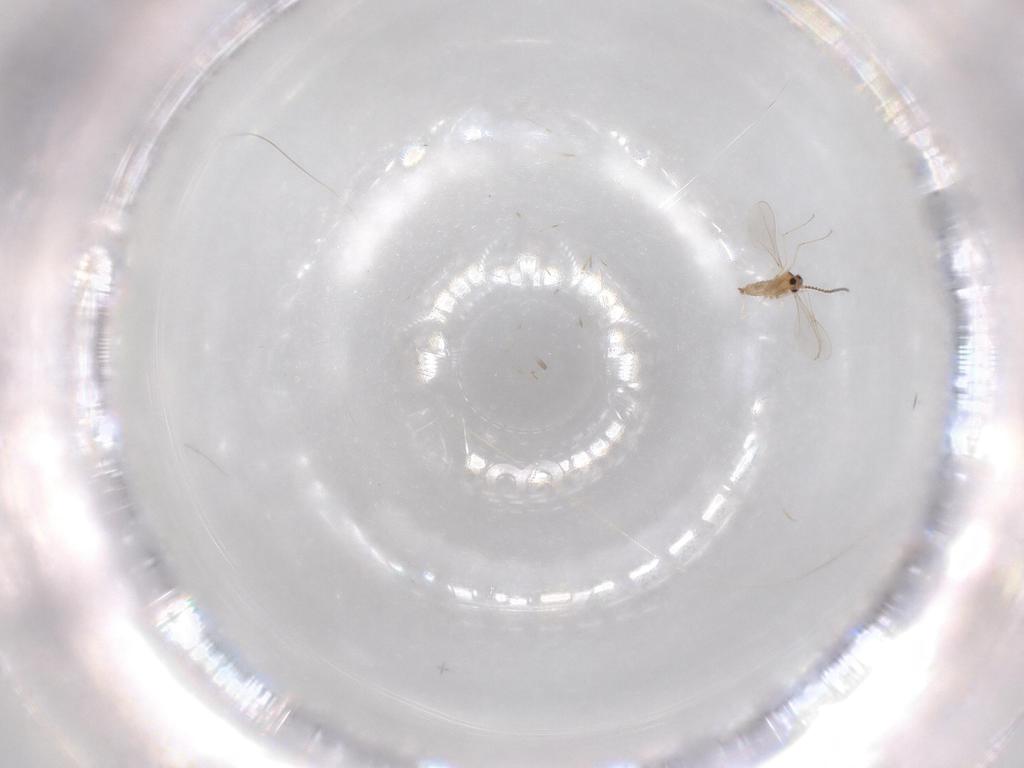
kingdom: Animalia
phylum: Arthropoda
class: Insecta
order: Diptera
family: Cecidomyiidae
